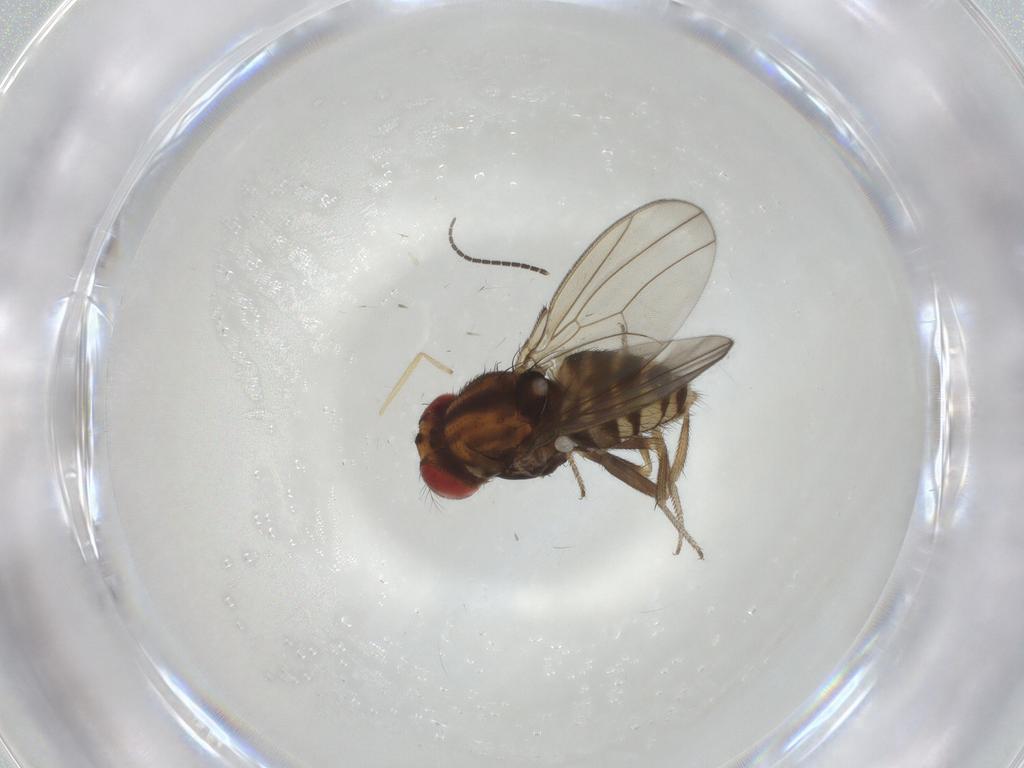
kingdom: Animalia
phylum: Arthropoda
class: Insecta
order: Diptera
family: Drosophilidae
